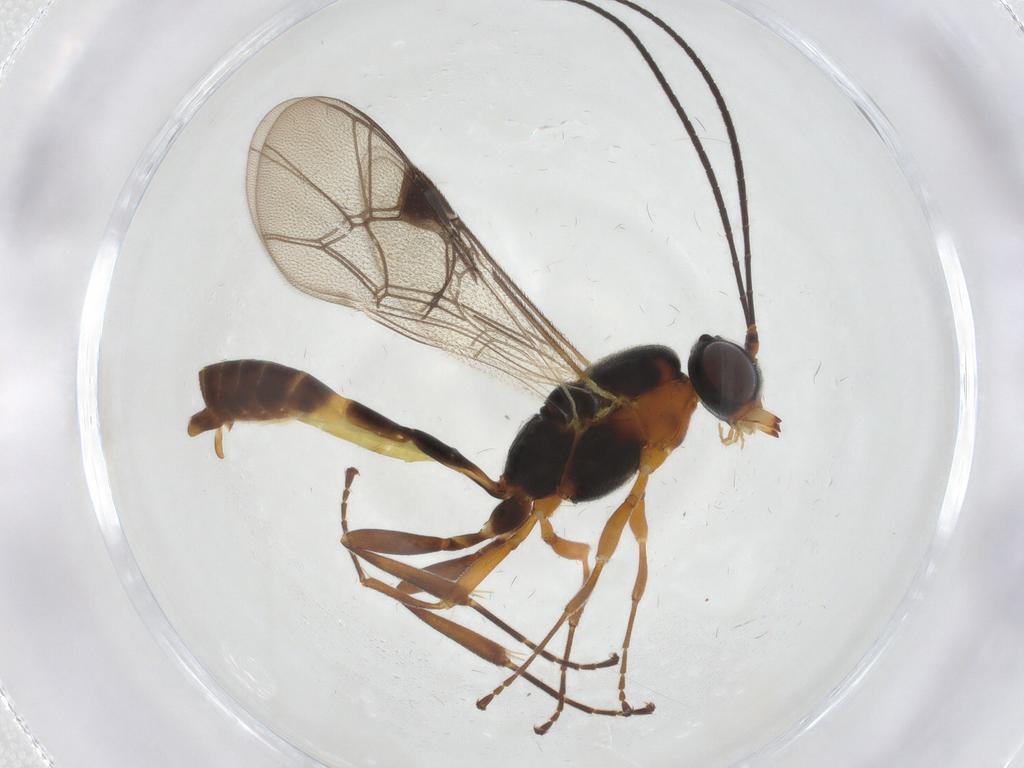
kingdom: Animalia
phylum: Arthropoda
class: Insecta
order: Hymenoptera
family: Ichneumonidae
